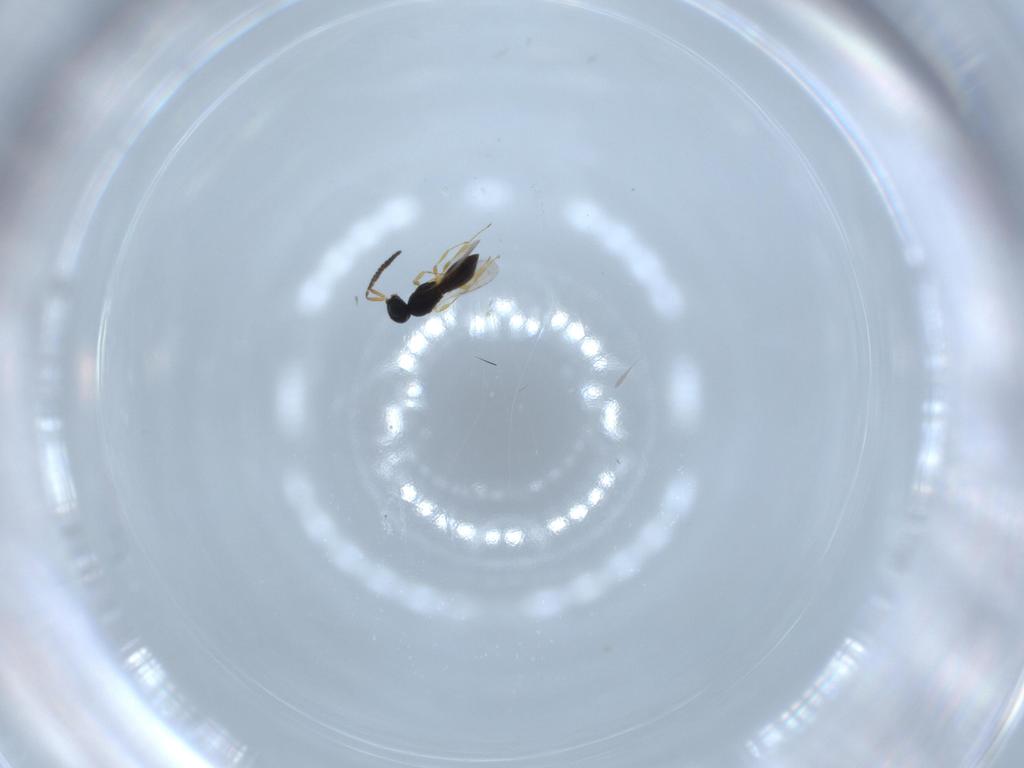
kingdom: Animalia
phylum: Arthropoda
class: Insecta
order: Hymenoptera
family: Scelionidae
